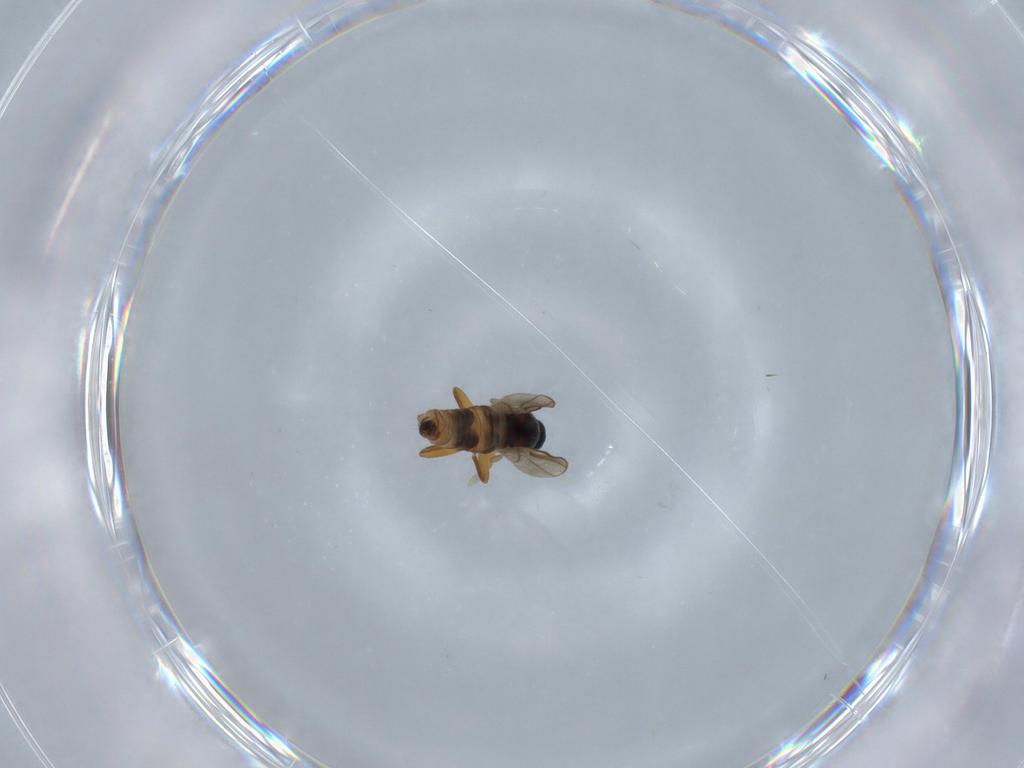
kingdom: Animalia
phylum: Arthropoda
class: Insecta
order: Diptera
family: Hybotidae
